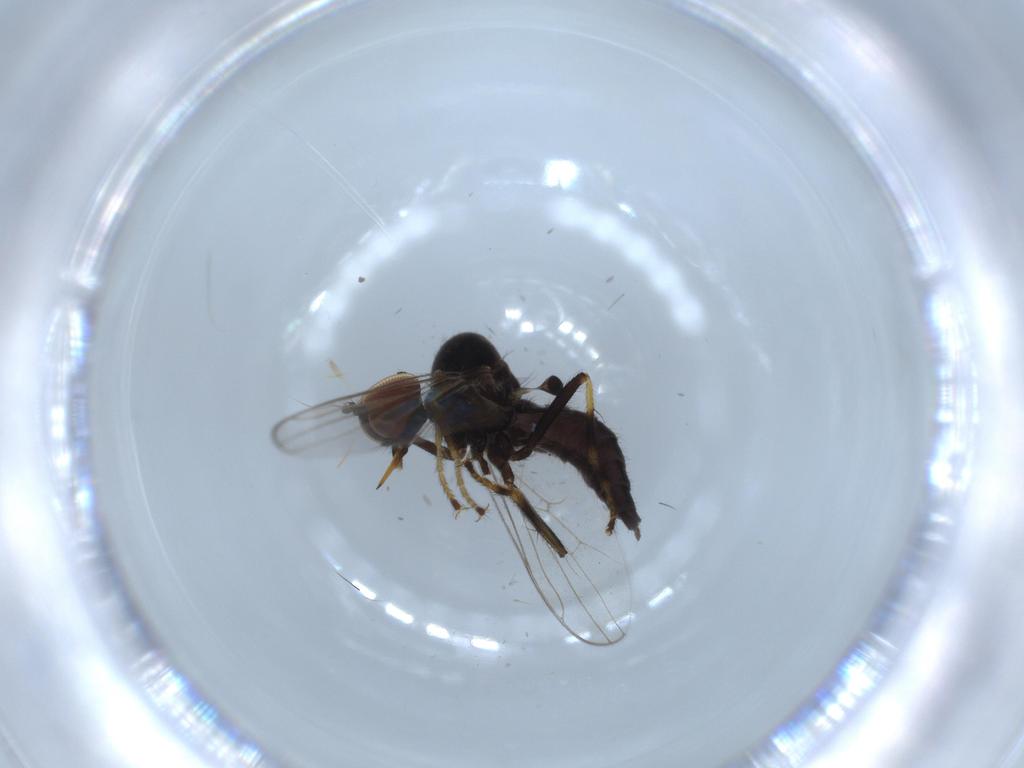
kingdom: Animalia
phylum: Arthropoda
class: Insecta
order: Diptera
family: Hybotidae
